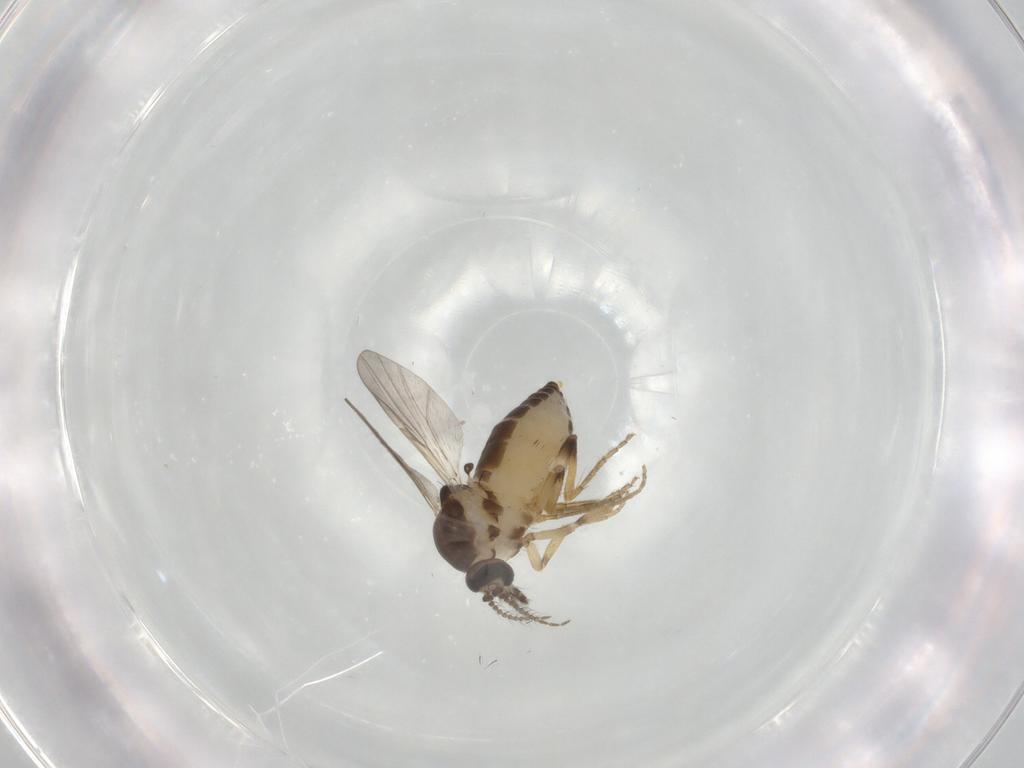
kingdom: Animalia
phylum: Arthropoda
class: Insecta
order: Diptera
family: Ceratopogonidae
